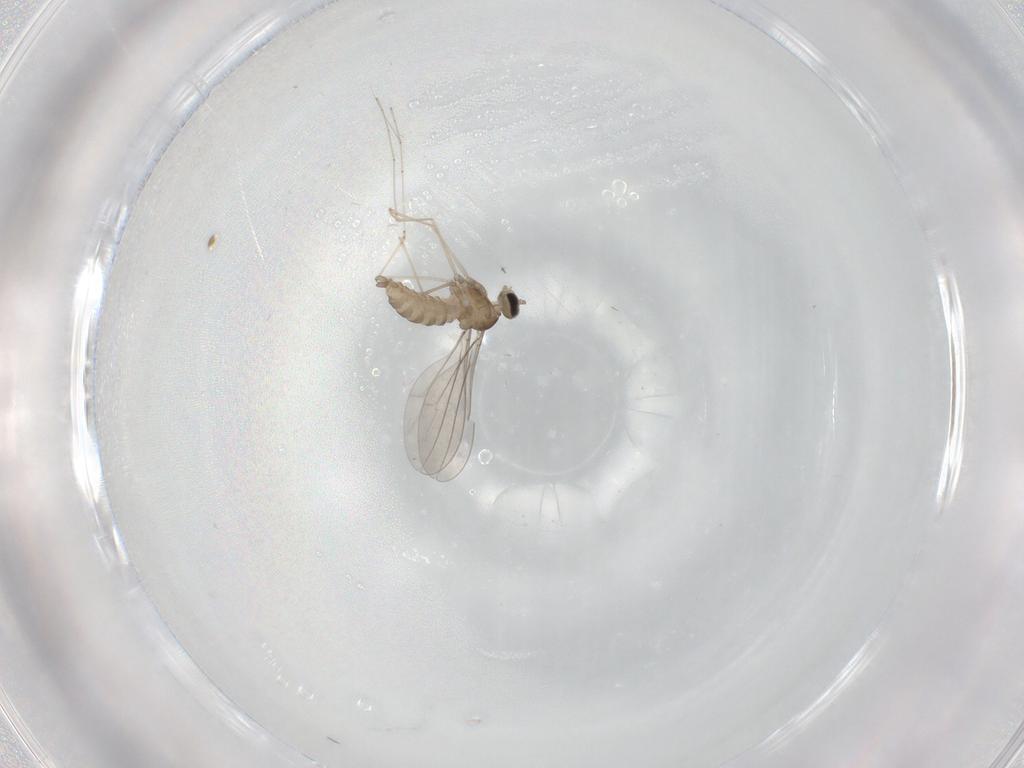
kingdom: Animalia
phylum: Arthropoda
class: Insecta
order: Diptera
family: Cecidomyiidae
